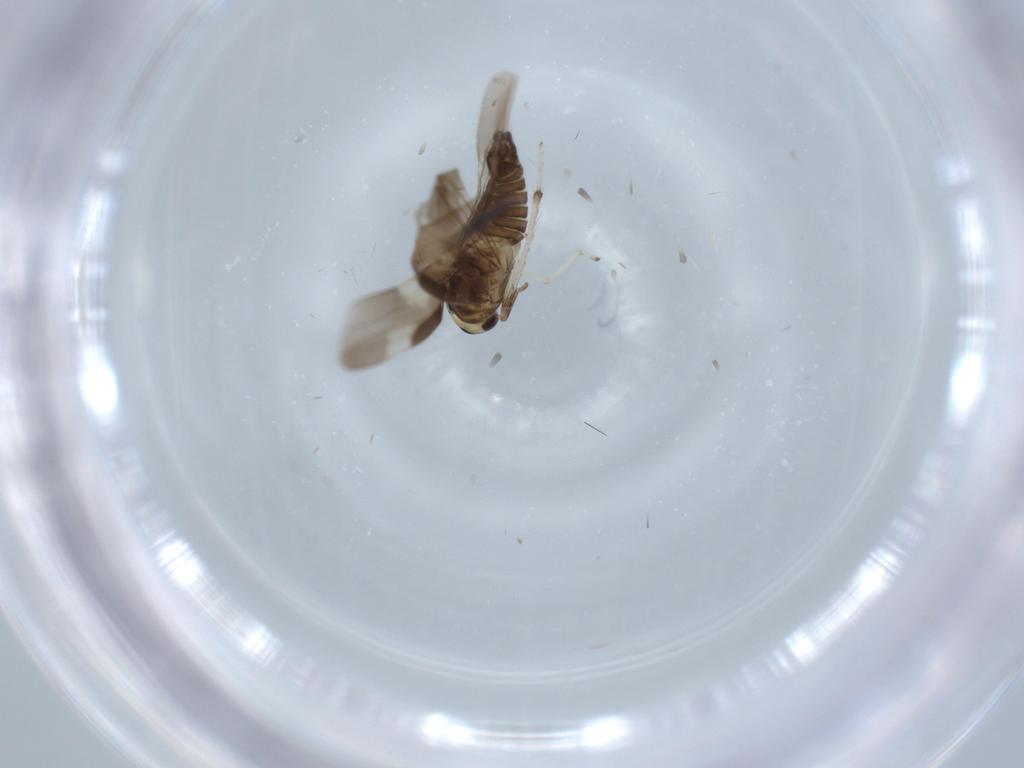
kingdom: Animalia
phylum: Arthropoda
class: Insecta
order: Hemiptera
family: Cicadellidae
